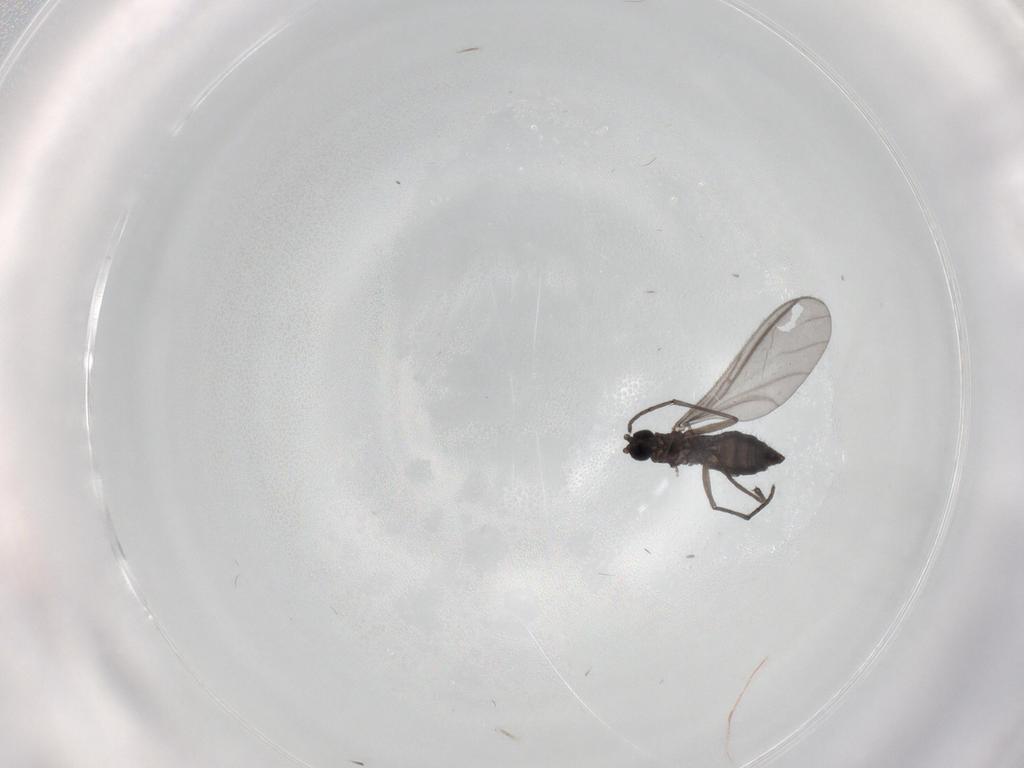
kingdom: Animalia
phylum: Arthropoda
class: Insecta
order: Diptera
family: Sciaridae
